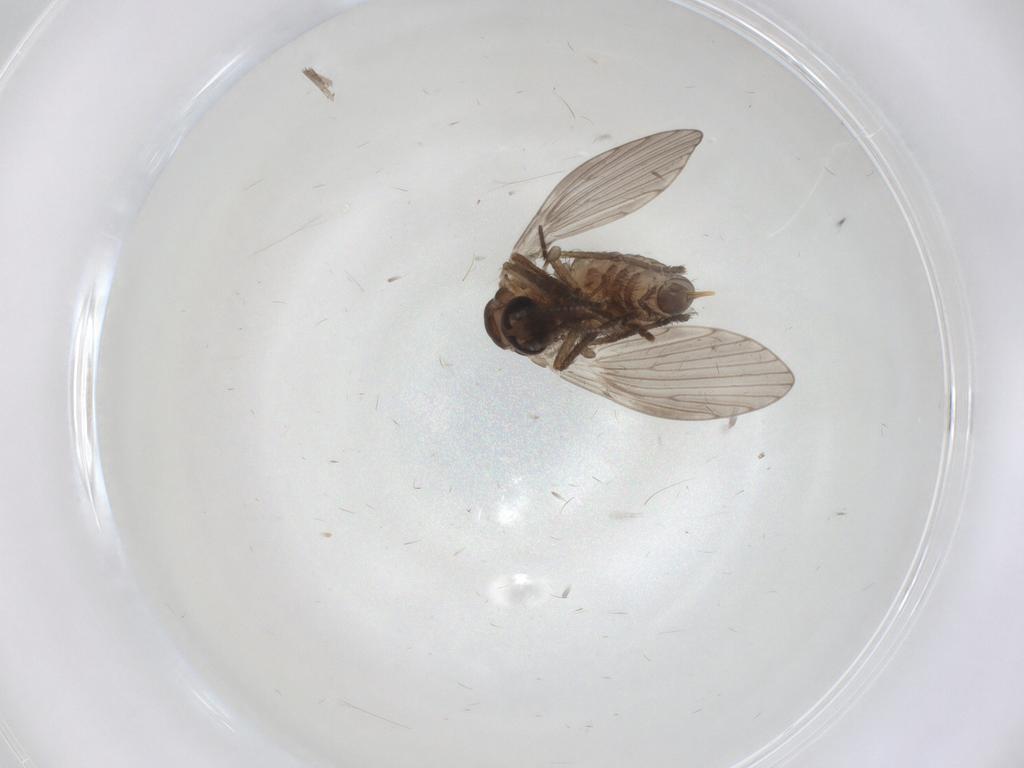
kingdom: Animalia
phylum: Arthropoda
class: Insecta
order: Diptera
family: Psychodidae
